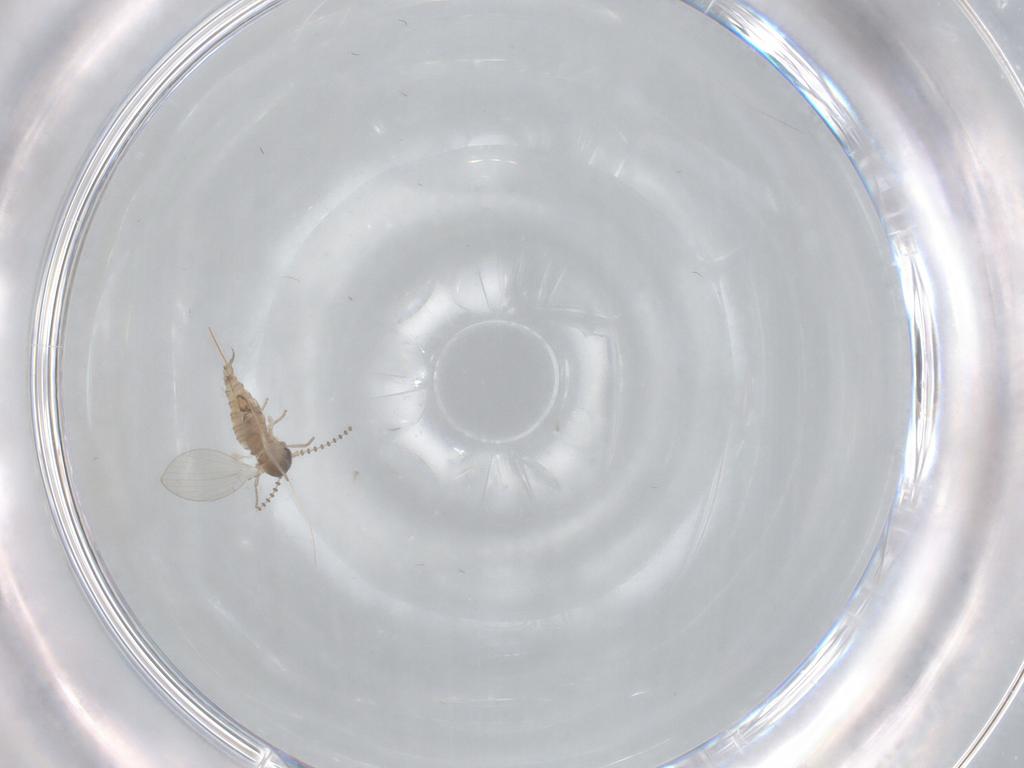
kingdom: Animalia
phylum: Arthropoda
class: Insecta
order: Diptera
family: Psychodidae
